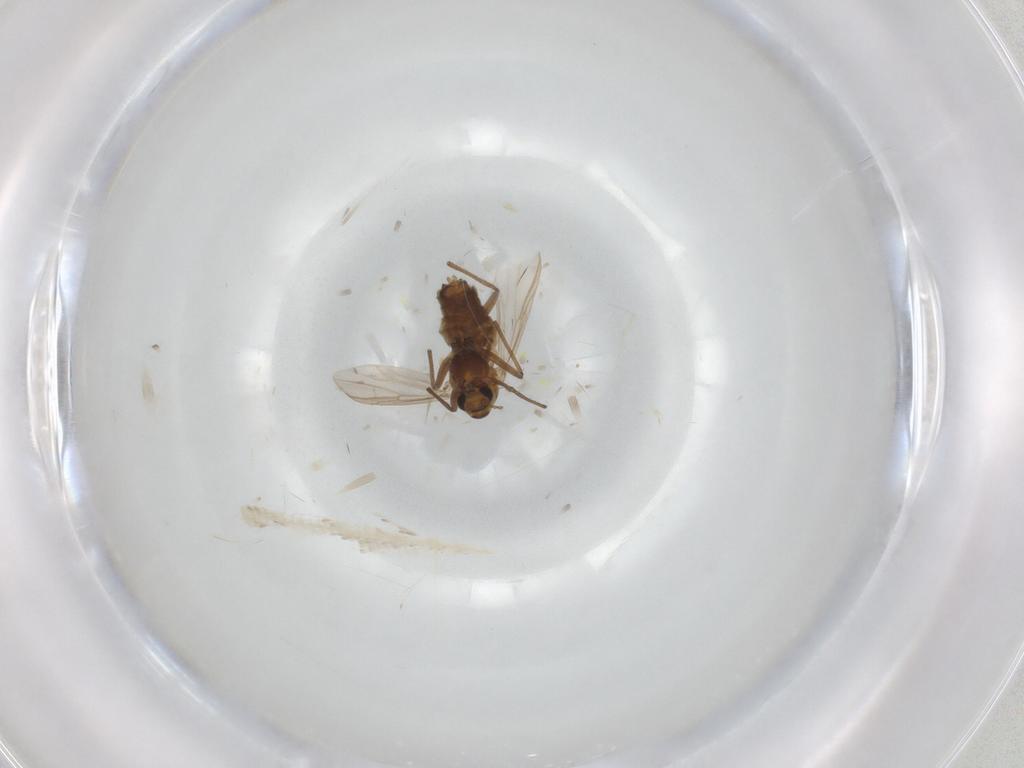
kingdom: Animalia
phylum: Arthropoda
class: Insecta
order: Diptera
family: Chironomidae
